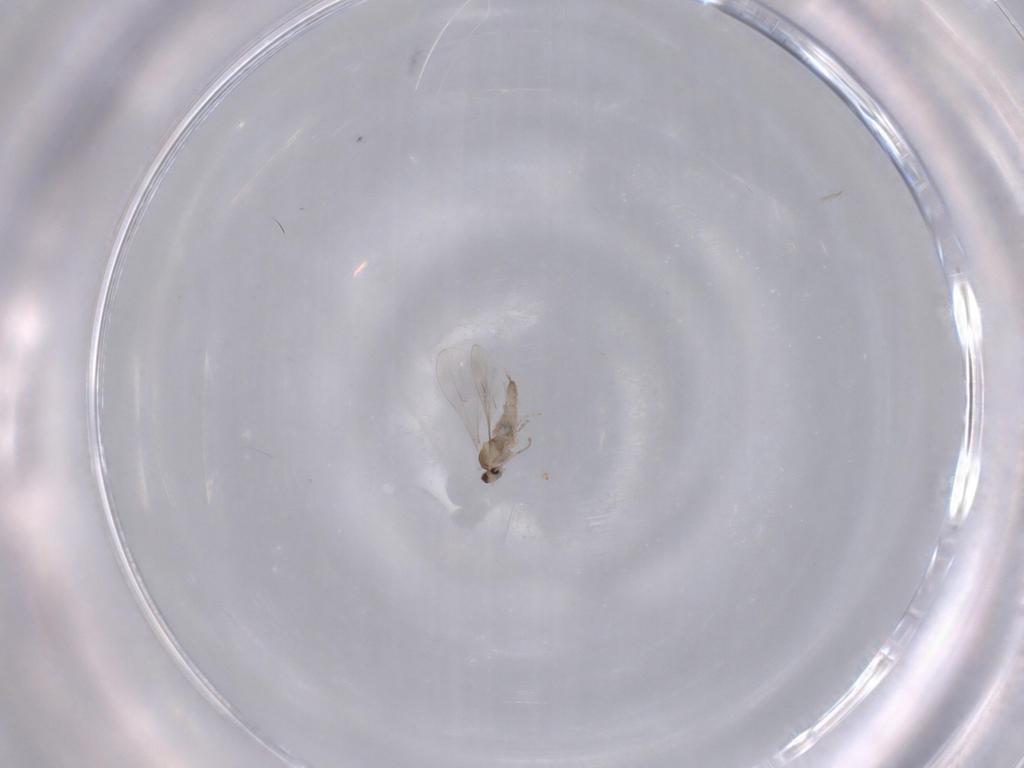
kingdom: Animalia
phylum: Arthropoda
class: Insecta
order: Diptera
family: Cecidomyiidae
